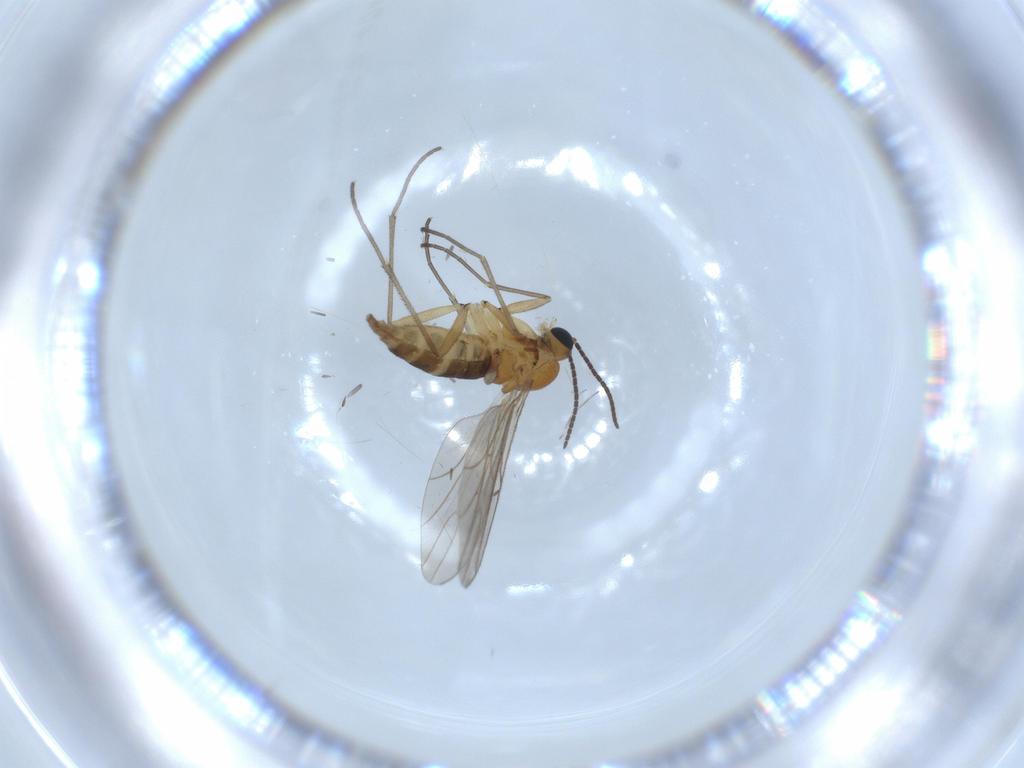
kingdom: Animalia
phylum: Arthropoda
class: Insecta
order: Diptera
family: Sciaridae
